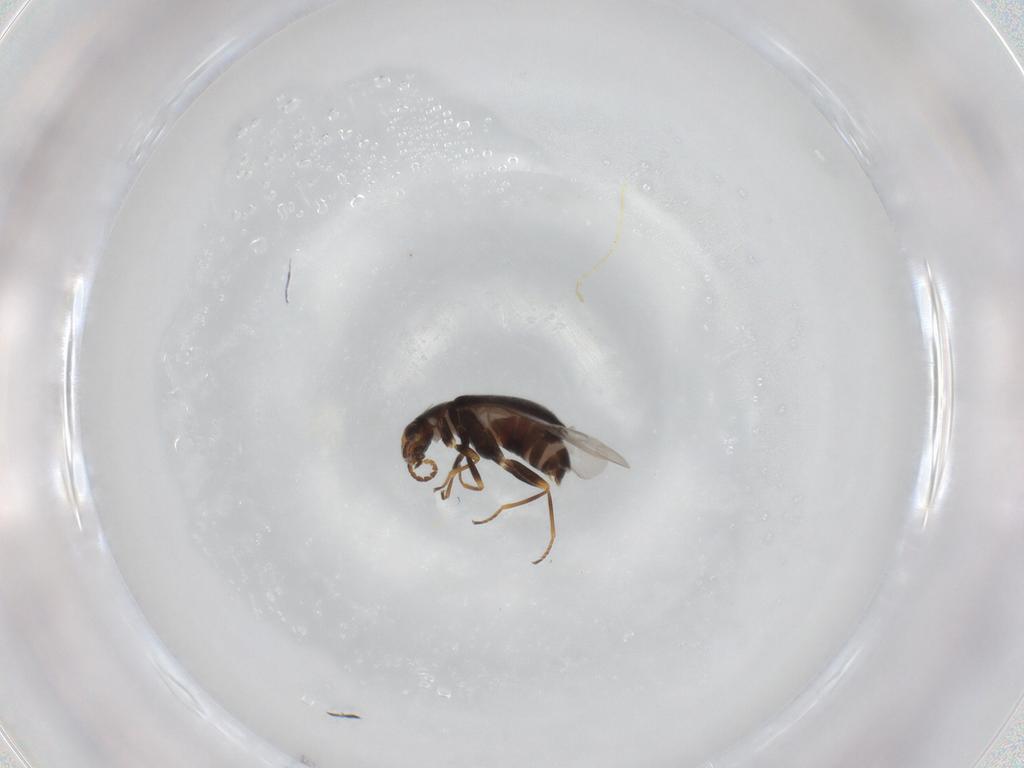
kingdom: Animalia
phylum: Arthropoda
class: Insecta
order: Coleoptera
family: Melyridae
